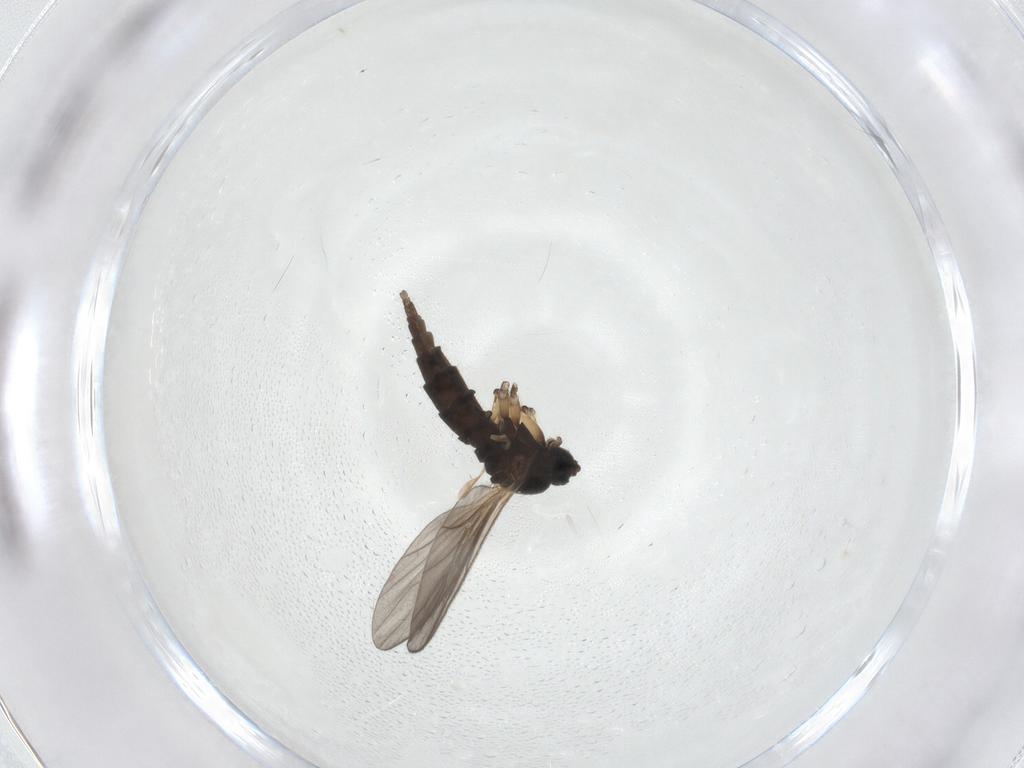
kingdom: Animalia
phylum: Arthropoda
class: Insecta
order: Diptera
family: Sciaridae
